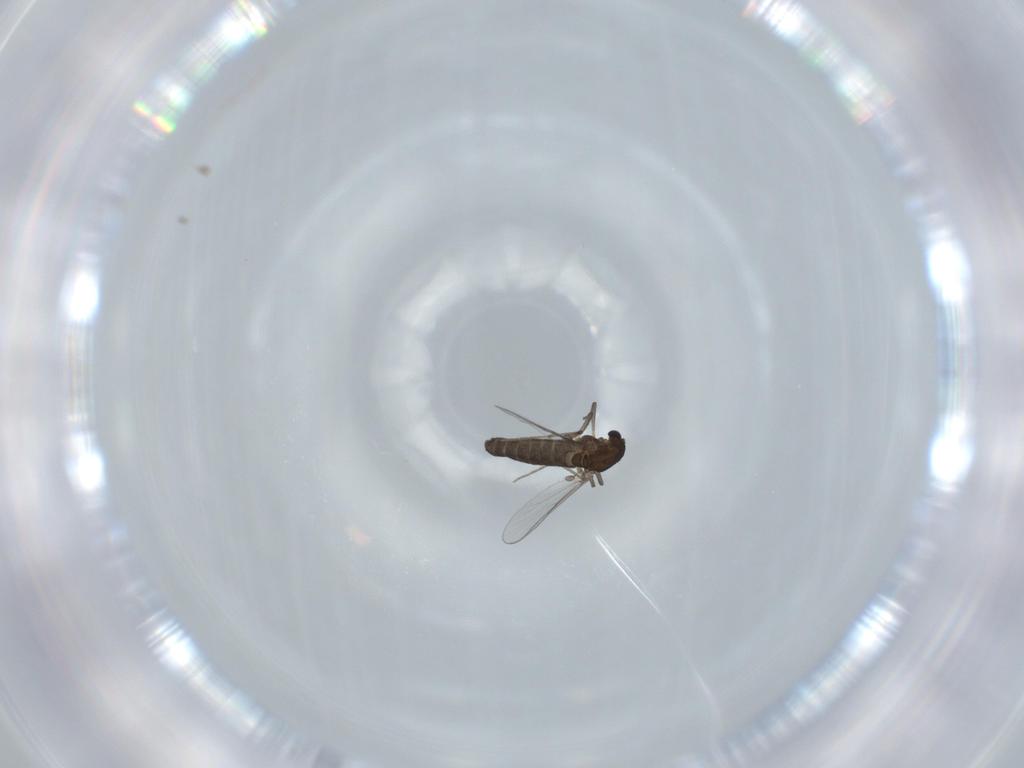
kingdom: Animalia
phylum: Arthropoda
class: Insecta
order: Diptera
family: Chironomidae
